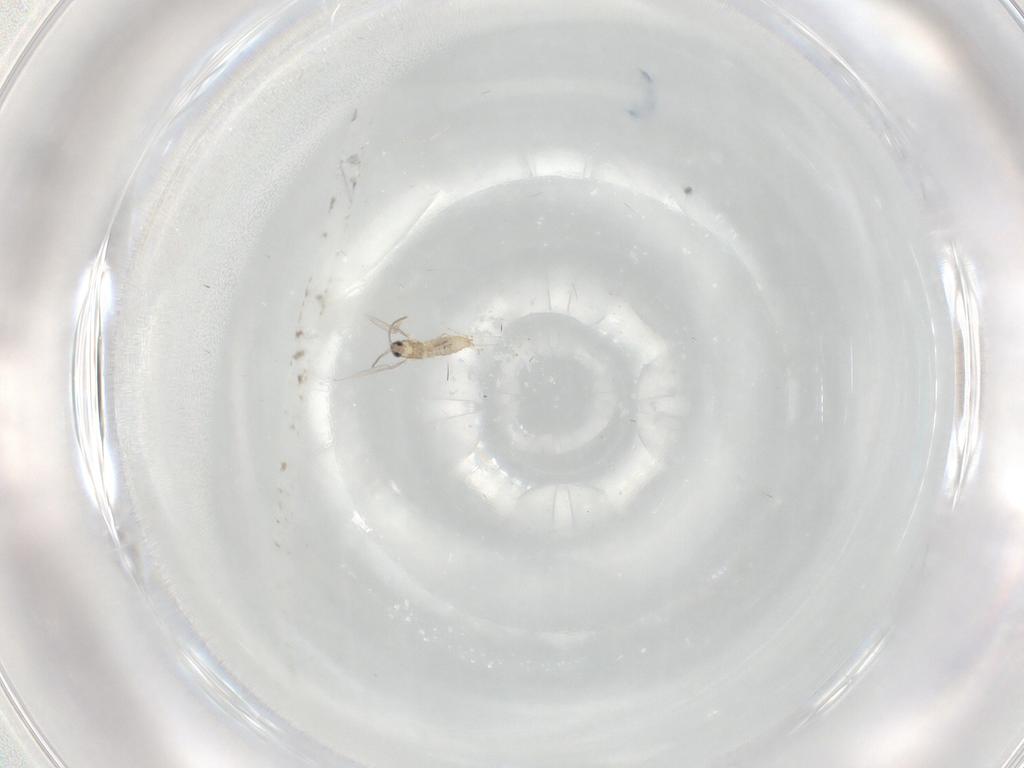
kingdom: Animalia
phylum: Arthropoda
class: Insecta
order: Diptera
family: Cecidomyiidae
